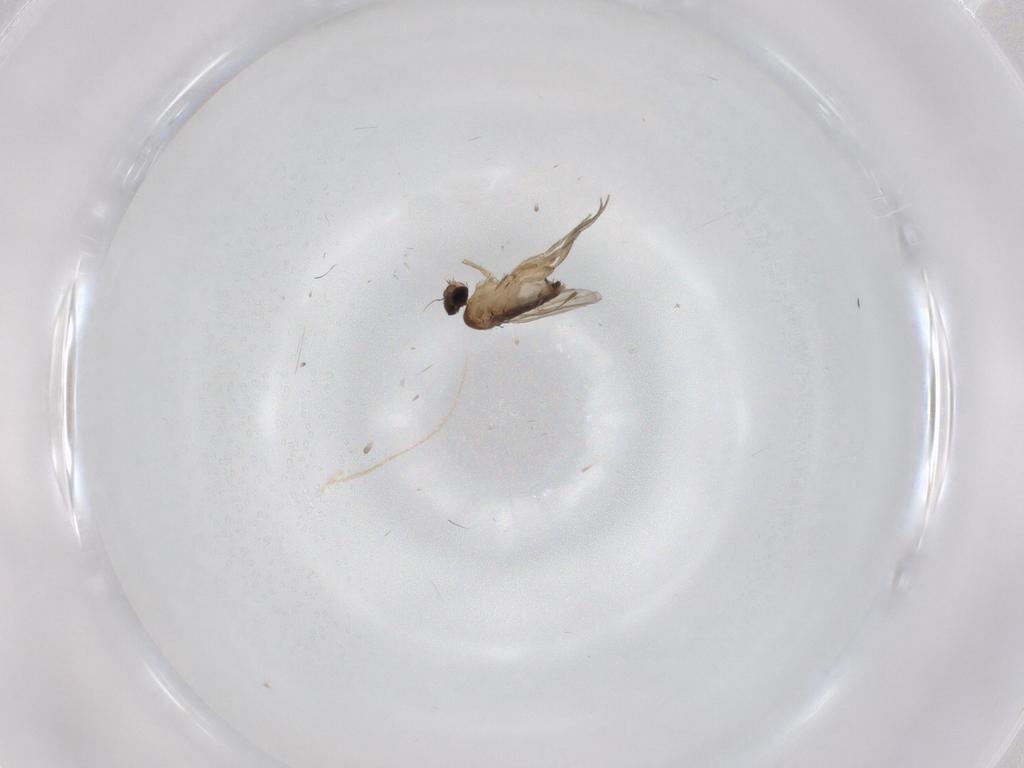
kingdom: Animalia
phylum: Arthropoda
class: Insecta
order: Diptera
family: Phoridae
